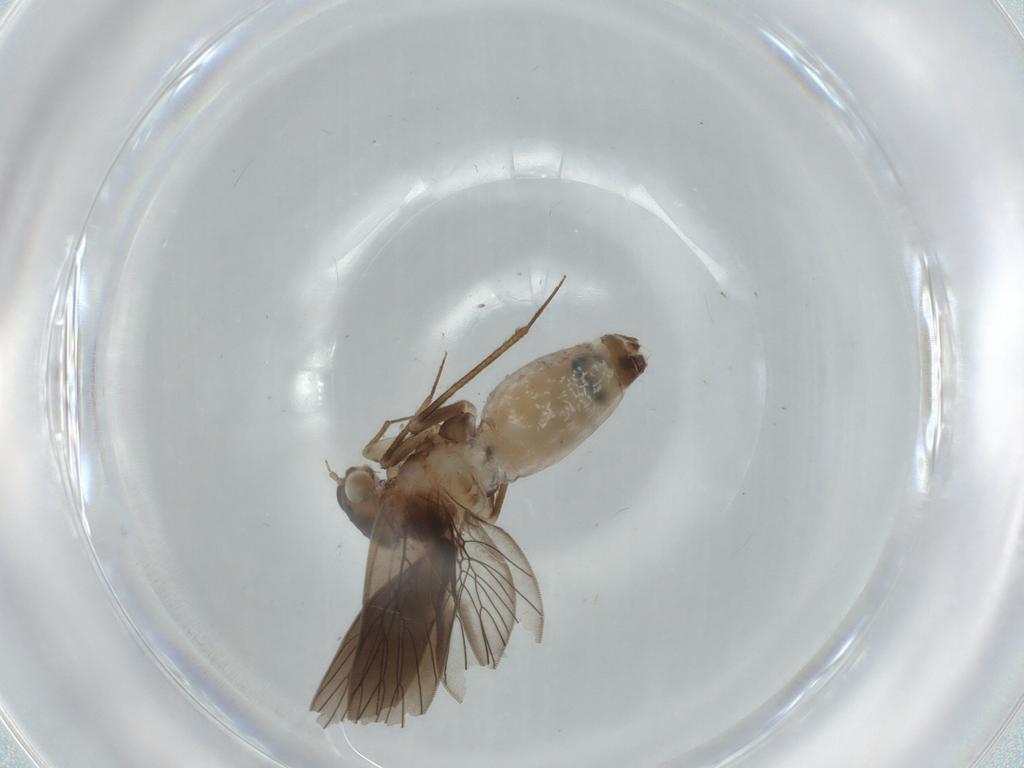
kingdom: Animalia
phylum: Arthropoda
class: Insecta
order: Psocodea
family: Lepidopsocidae
